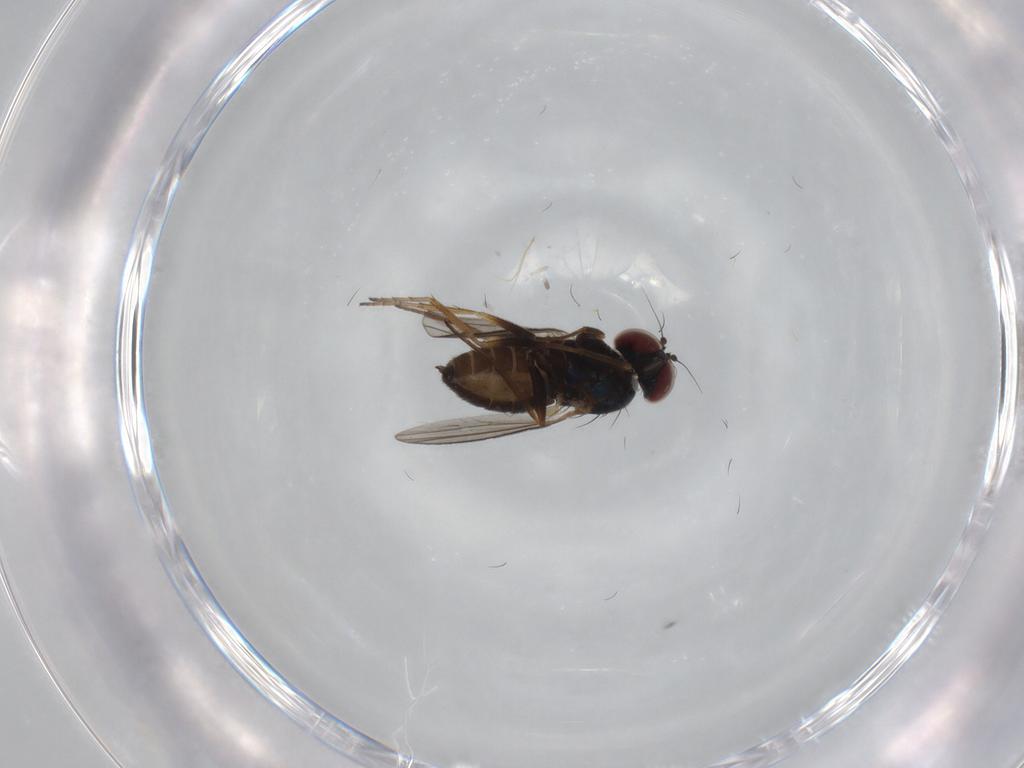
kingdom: Animalia
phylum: Arthropoda
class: Insecta
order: Diptera
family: Dolichopodidae
